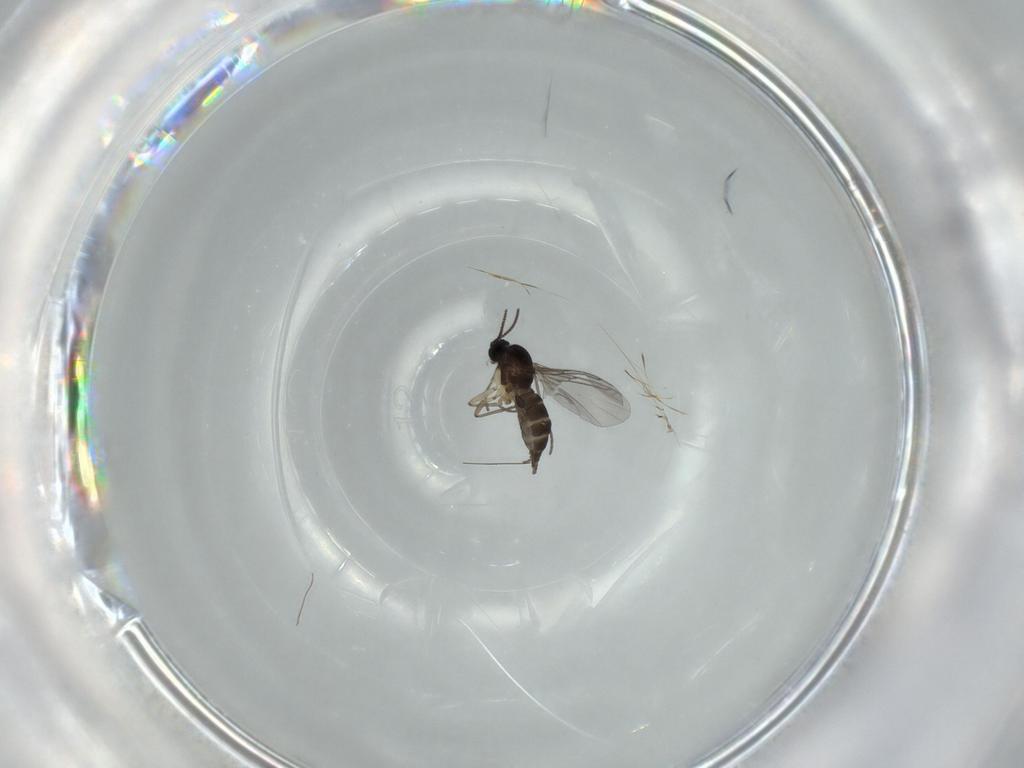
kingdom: Animalia
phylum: Arthropoda
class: Insecta
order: Diptera
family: Sciaridae
